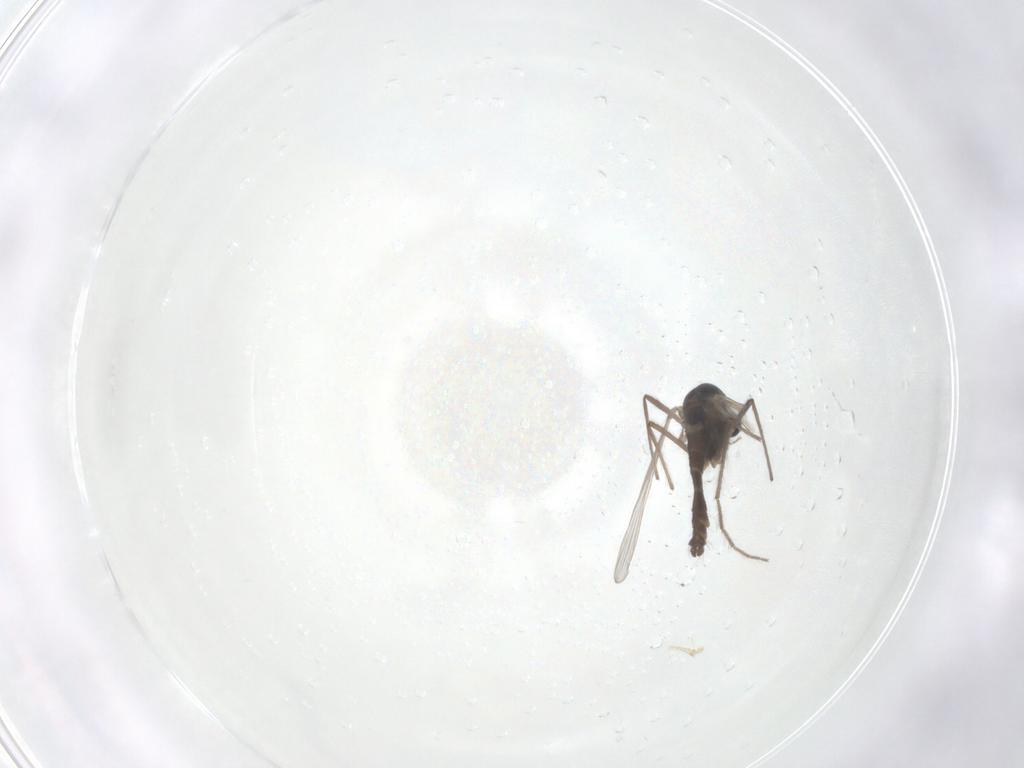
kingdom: Animalia
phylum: Arthropoda
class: Insecta
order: Diptera
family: Chironomidae
